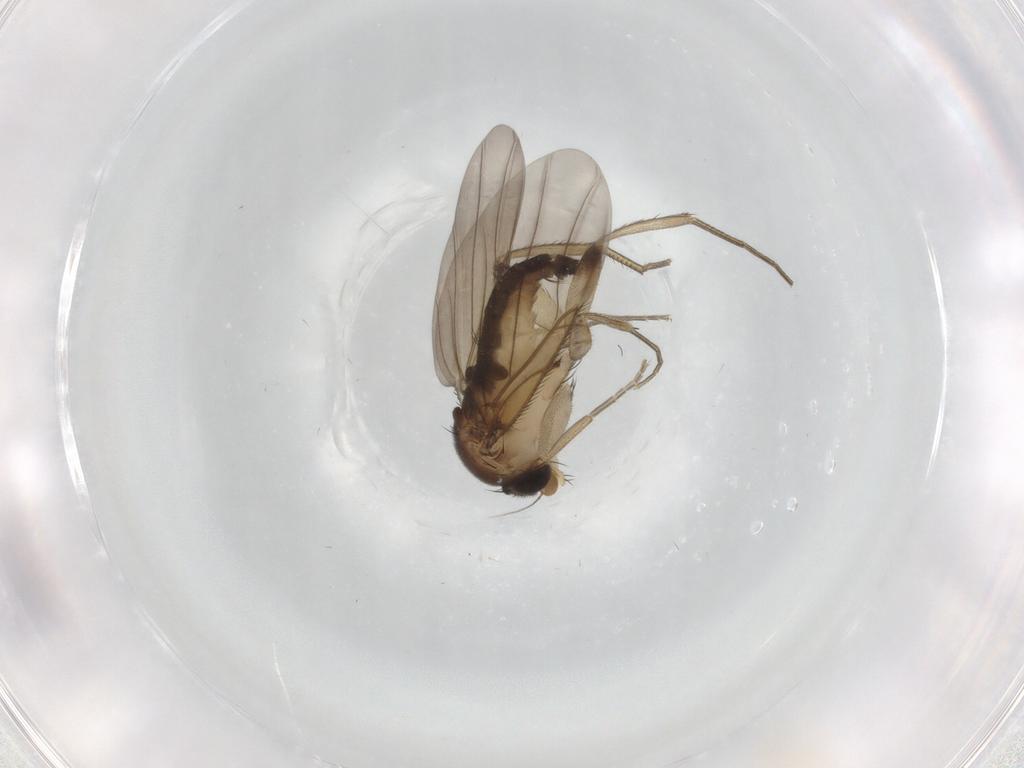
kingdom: Animalia
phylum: Arthropoda
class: Insecta
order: Diptera
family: Phoridae
